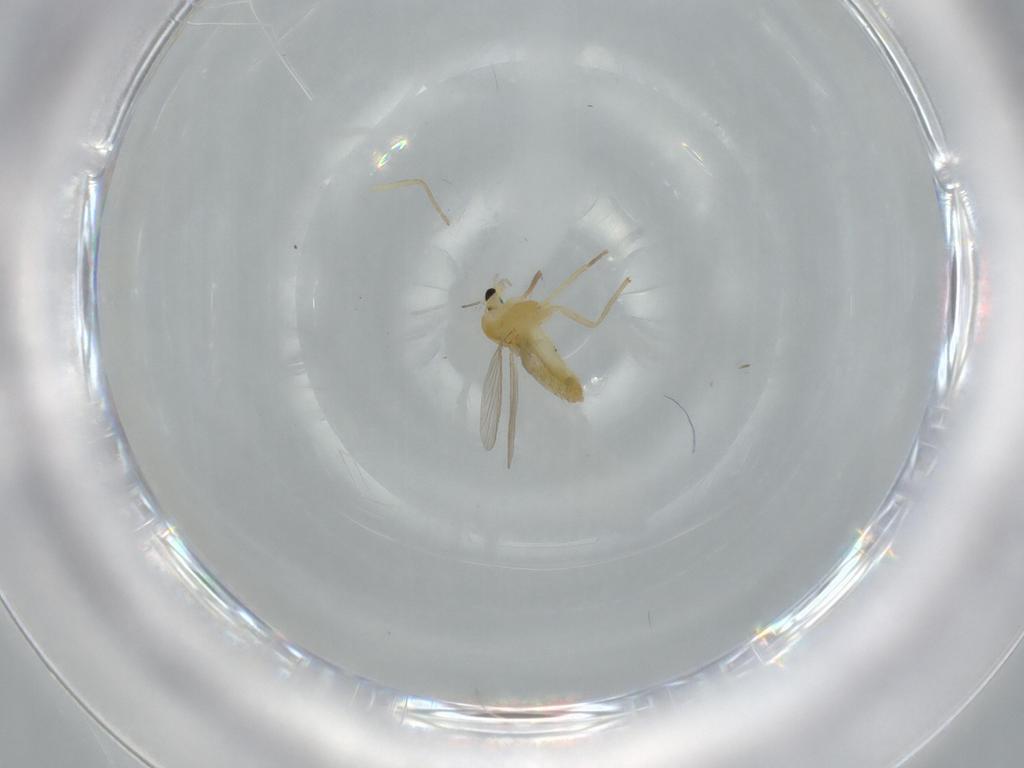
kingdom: Animalia
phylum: Arthropoda
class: Insecta
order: Diptera
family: Chironomidae
